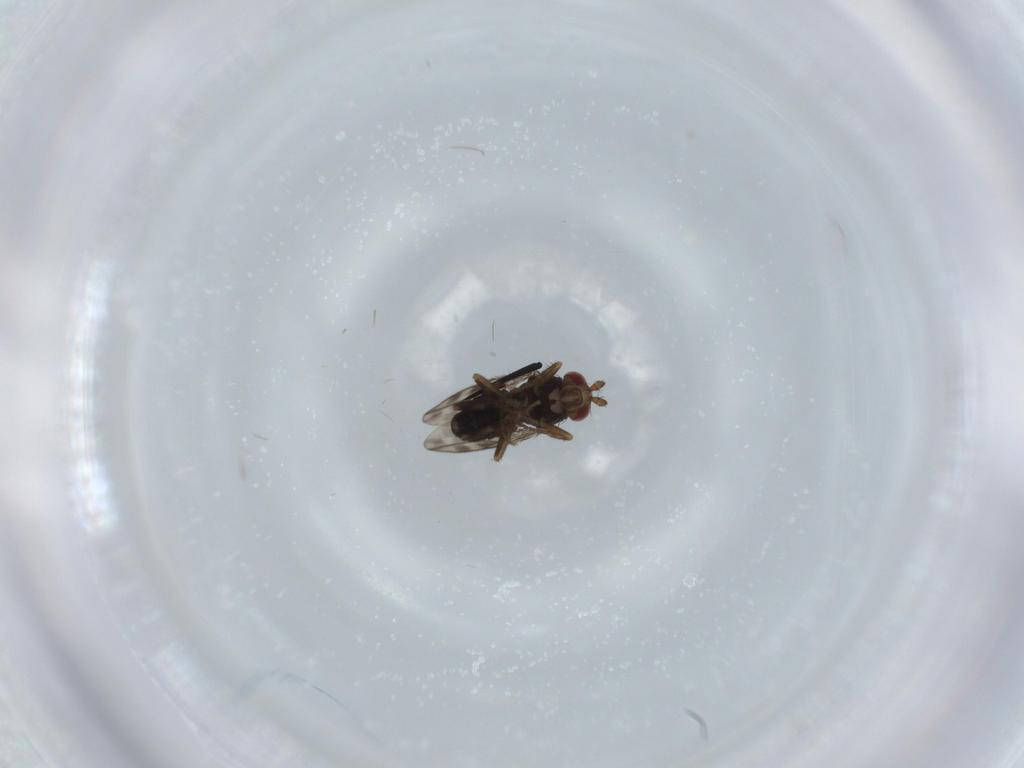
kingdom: Animalia
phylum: Arthropoda
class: Insecta
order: Diptera
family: Sphaeroceridae
